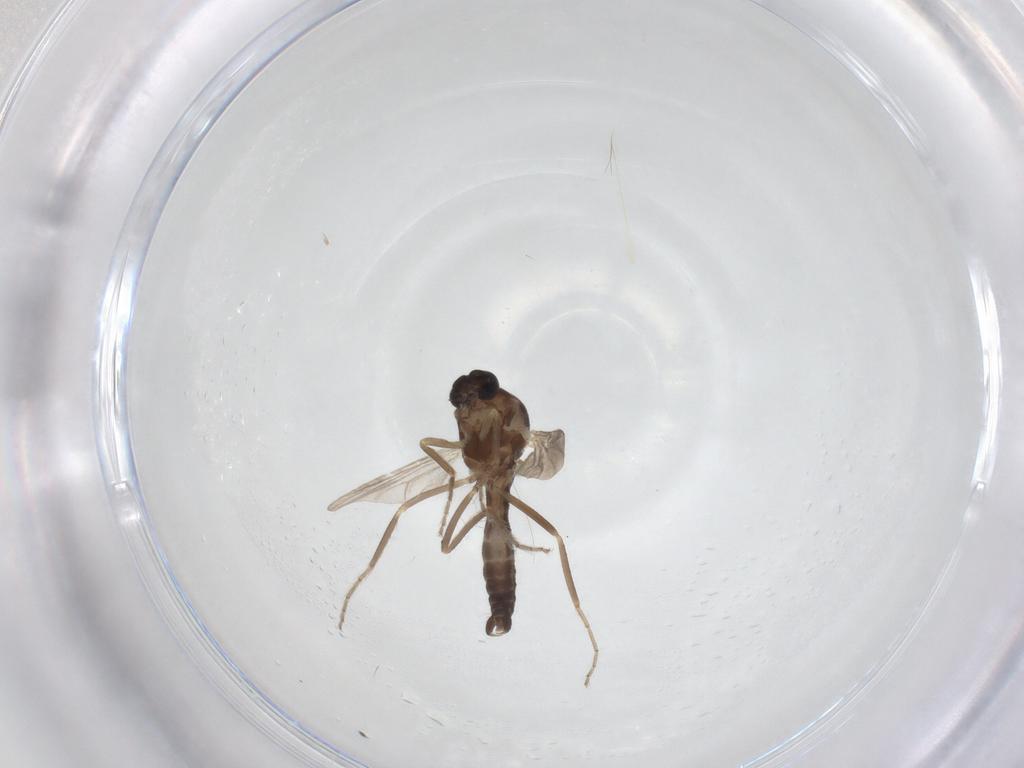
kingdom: Animalia
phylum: Arthropoda
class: Insecta
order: Diptera
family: Ceratopogonidae
